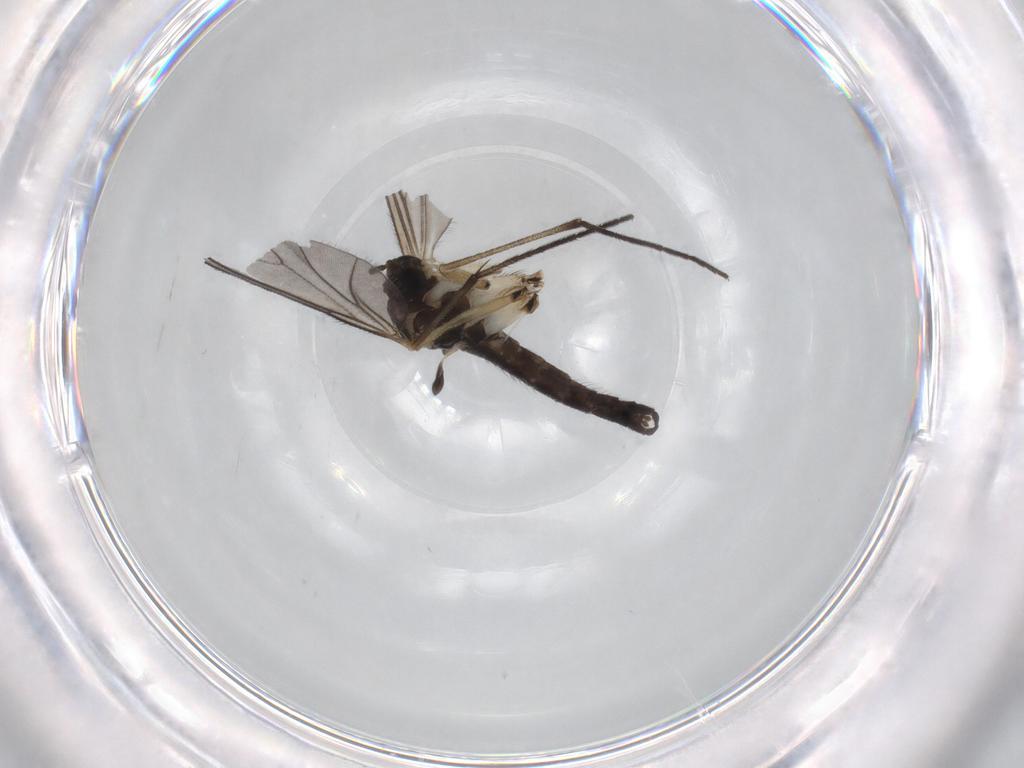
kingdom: Animalia
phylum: Arthropoda
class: Insecta
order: Diptera
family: Sciaridae
